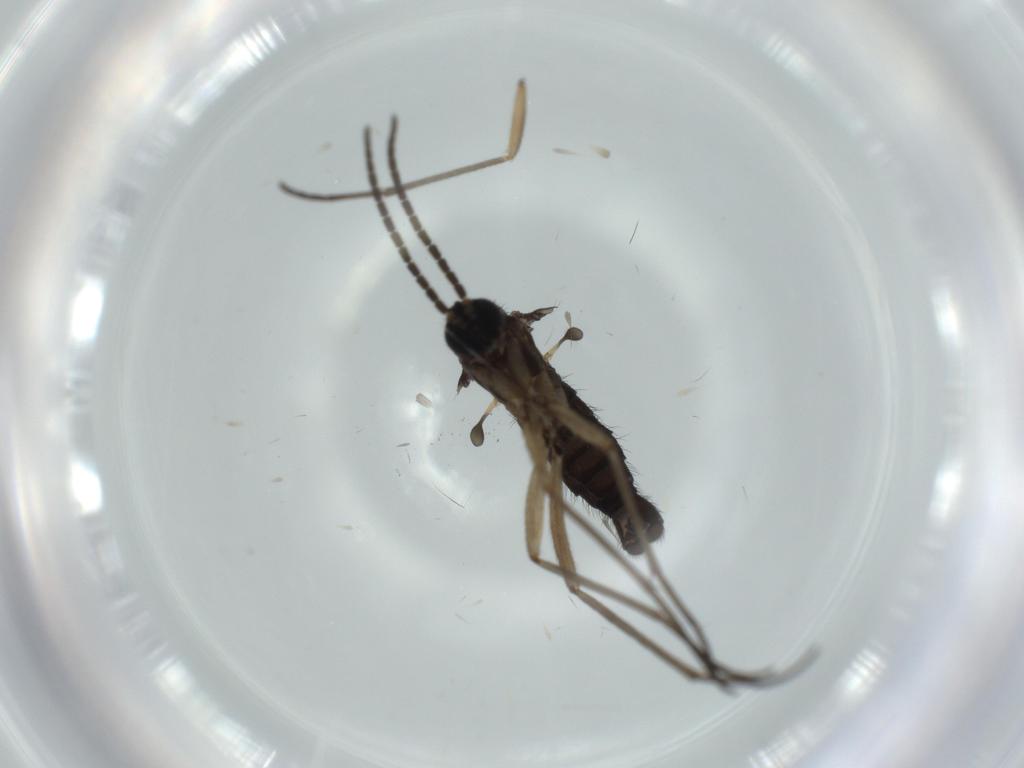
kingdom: Animalia
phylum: Arthropoda
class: Insecta
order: Diptera
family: Sciaridae
